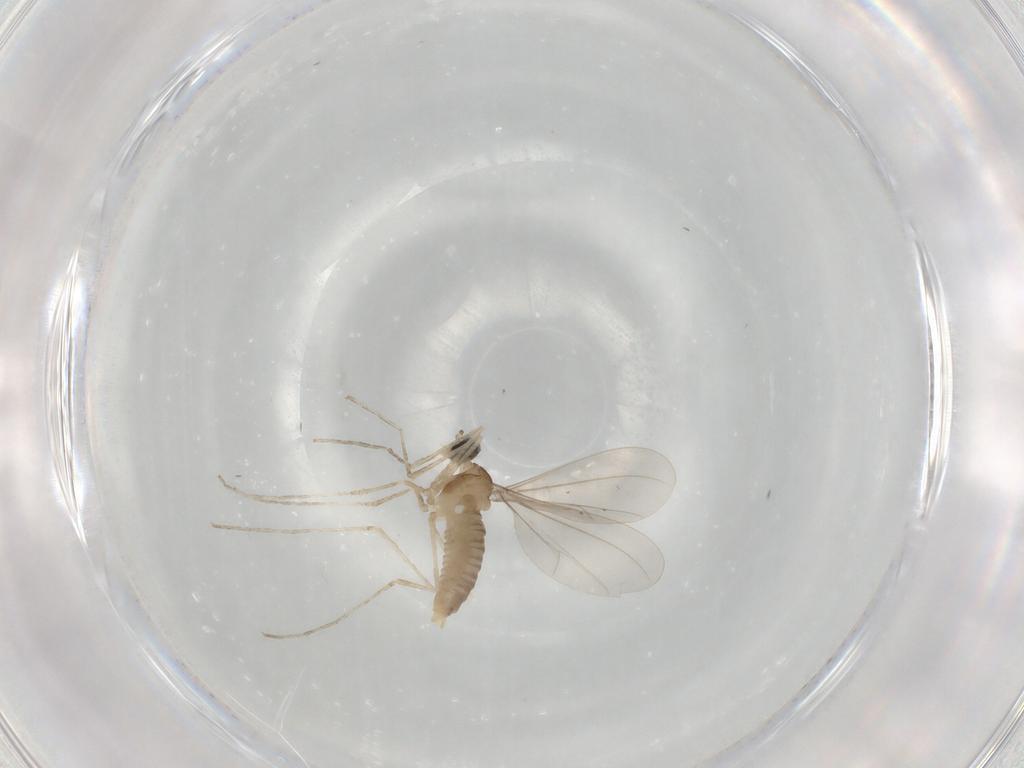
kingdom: Animalia
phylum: Arthropoda
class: Insecta
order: Diptera
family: Cecidomyiidae
